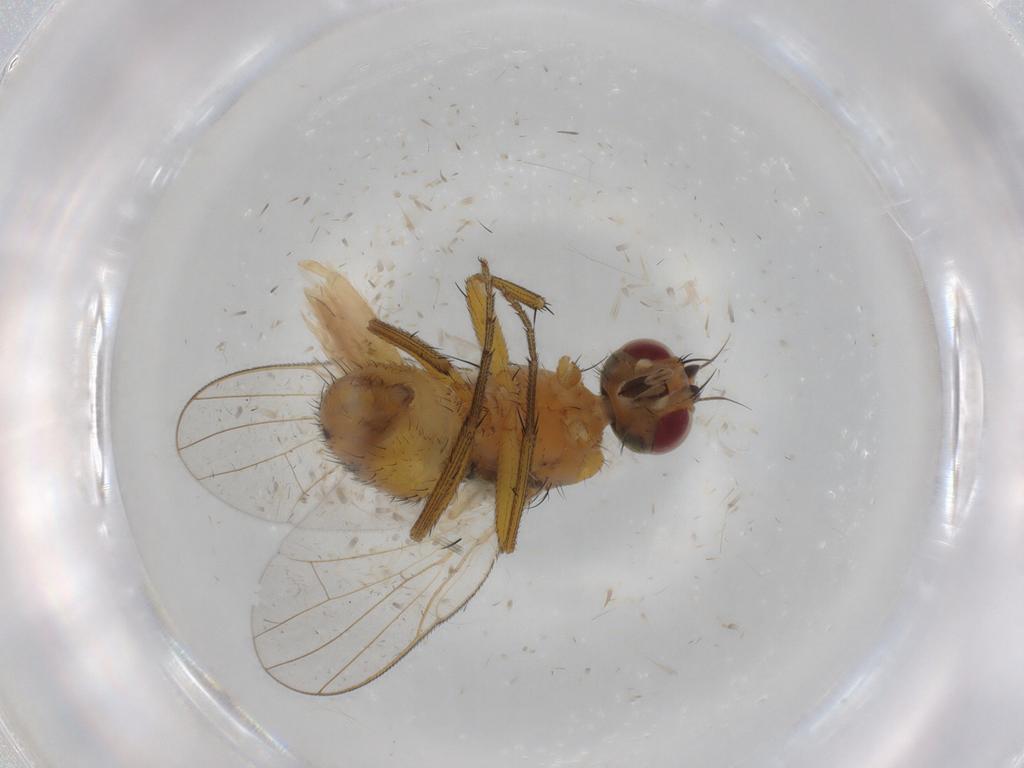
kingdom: Animalia
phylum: Arthropoda
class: Insecta
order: Diptera
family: Muscidae
